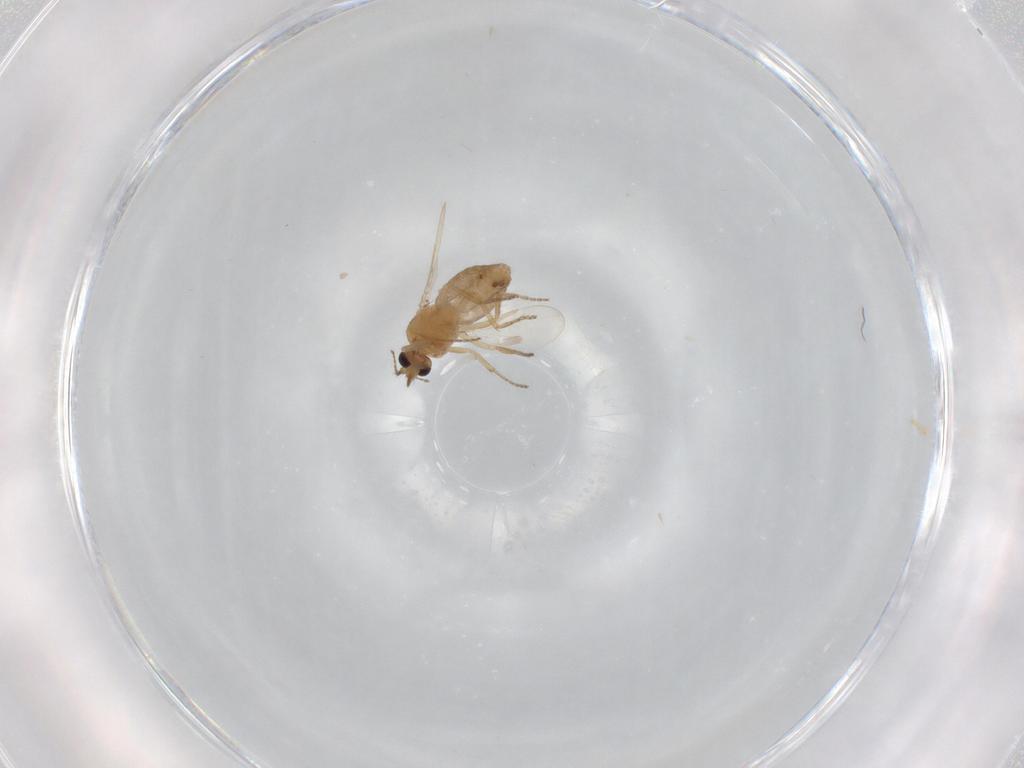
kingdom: Animalia
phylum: Arthropoda
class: Insecta
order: Diptera
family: Ceratopogonidae
